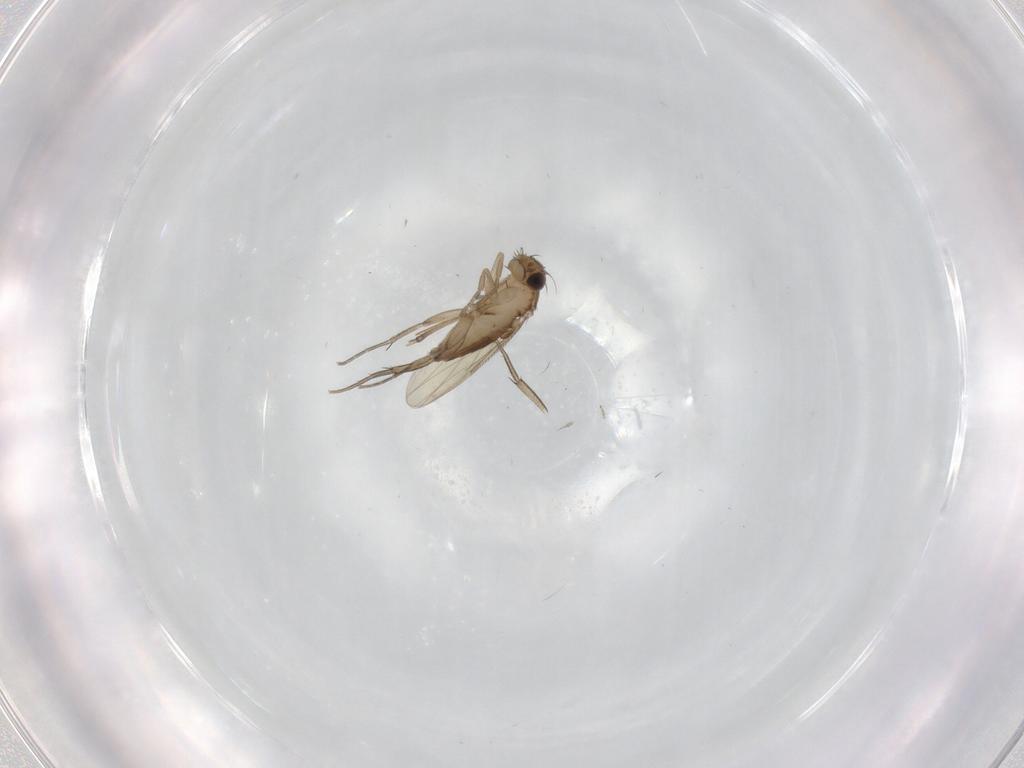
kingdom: Animalia
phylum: Arthropoda
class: Insecta
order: Diptera
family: Phoridae
